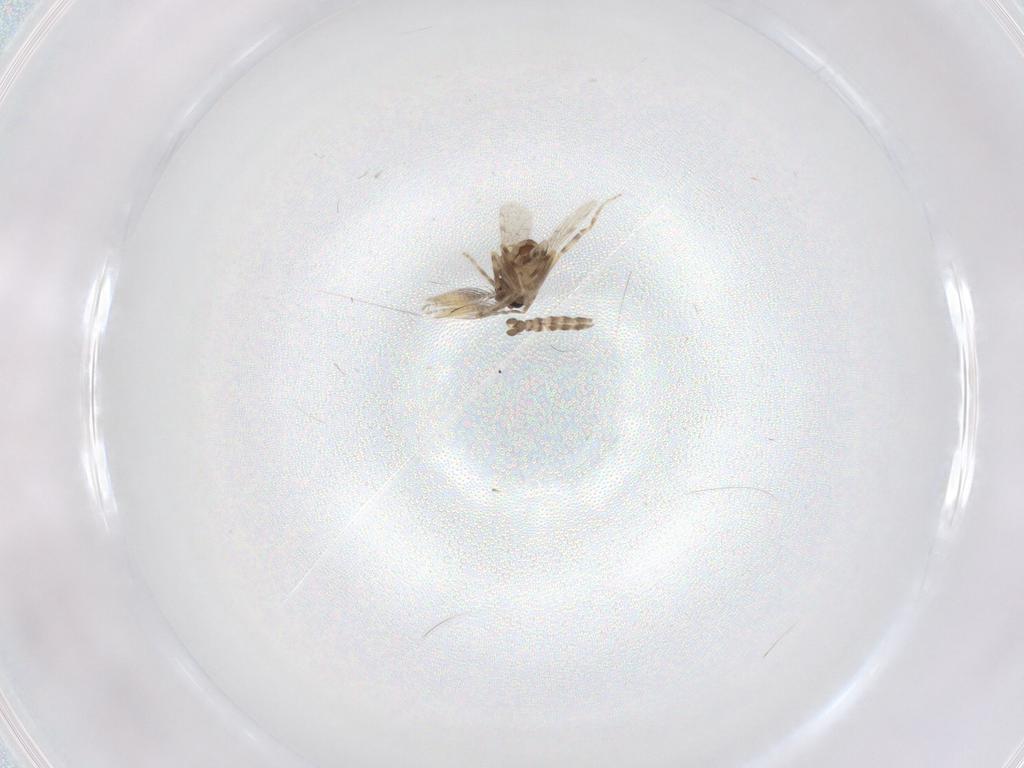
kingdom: Animalia
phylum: Arthropoda
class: Insecta
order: Diptera
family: Ceratopogonidae
